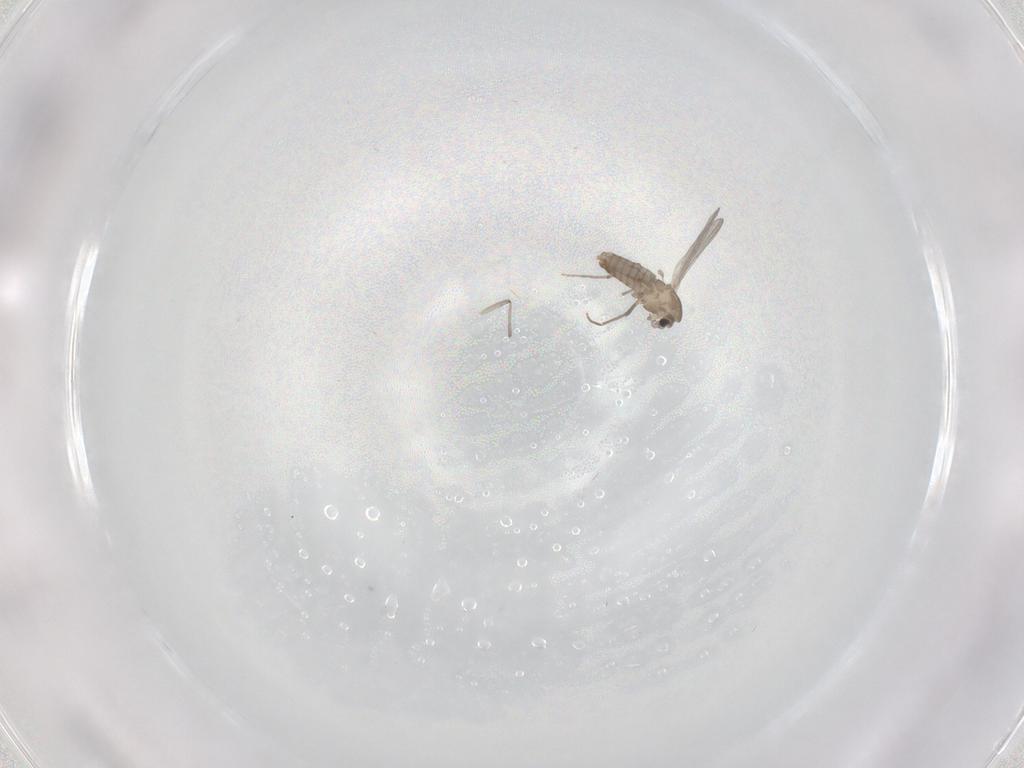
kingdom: Animalia
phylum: Arthropoda
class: Insecta
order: Diptera
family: Chironomidae
